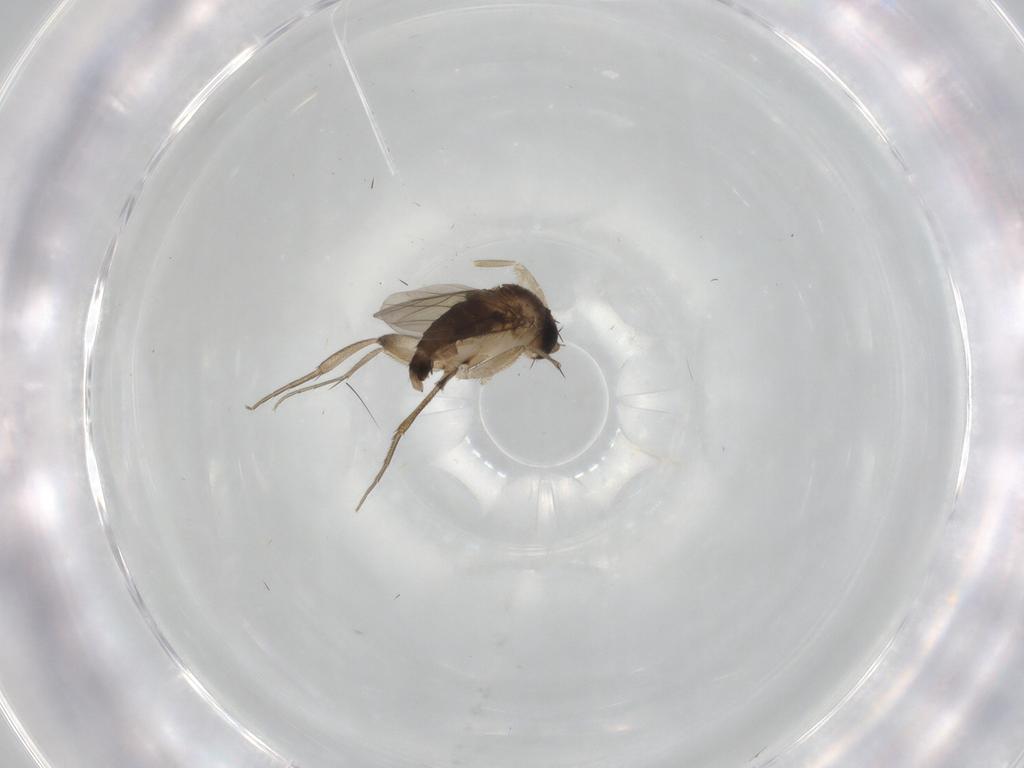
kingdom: Animalia
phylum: Arthropoda
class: Insecta
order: Diptera
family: Phoridae
